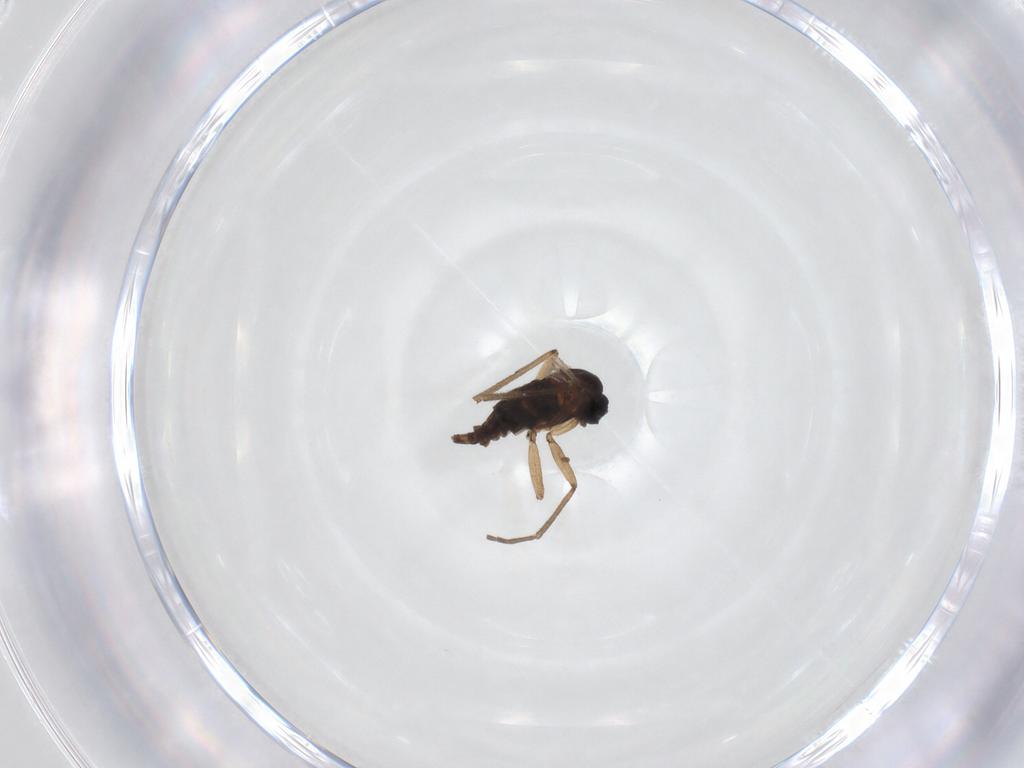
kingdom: Animalia
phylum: Arthropoda
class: Insecta
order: Diptera
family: Sciaridae
